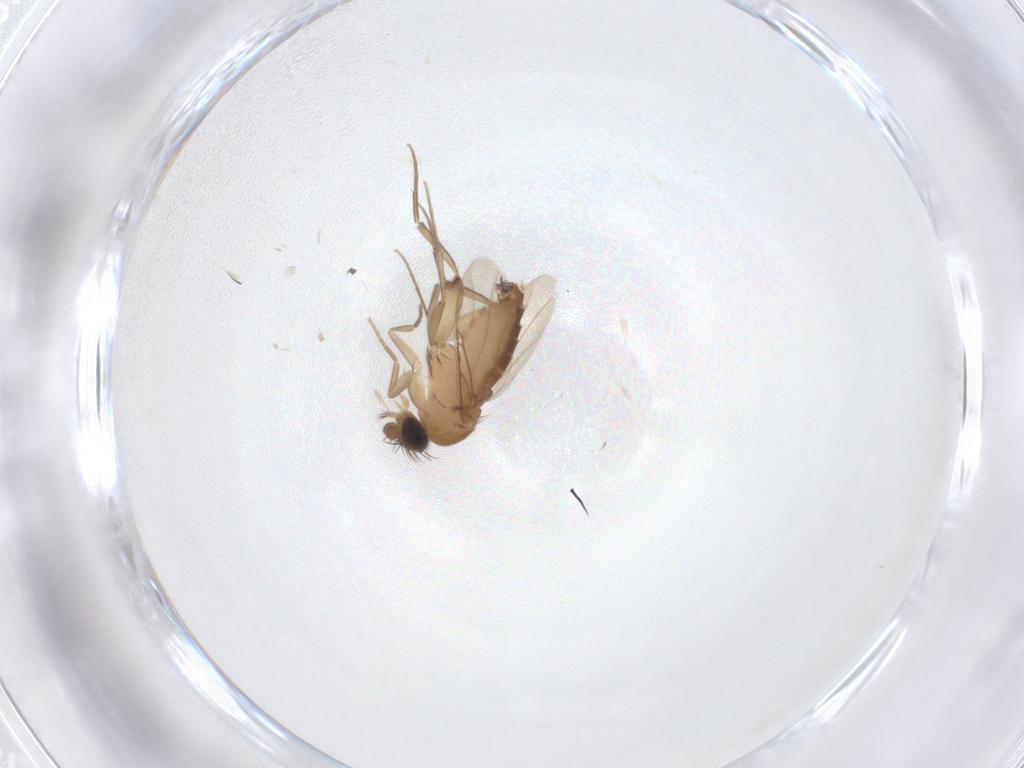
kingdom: Animalia
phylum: Arthropoda
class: Insecta
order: Diptera
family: Phoridae
